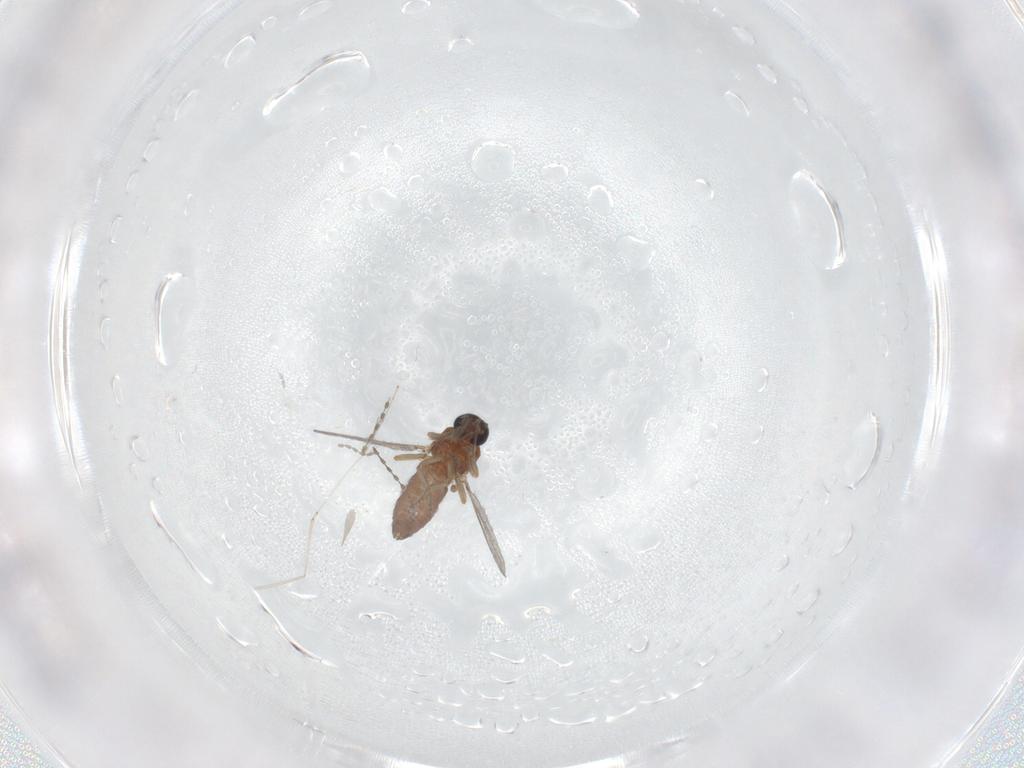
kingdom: Animalia
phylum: Arthropoda
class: Insecta
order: Diptera
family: Ceratopogonidae
